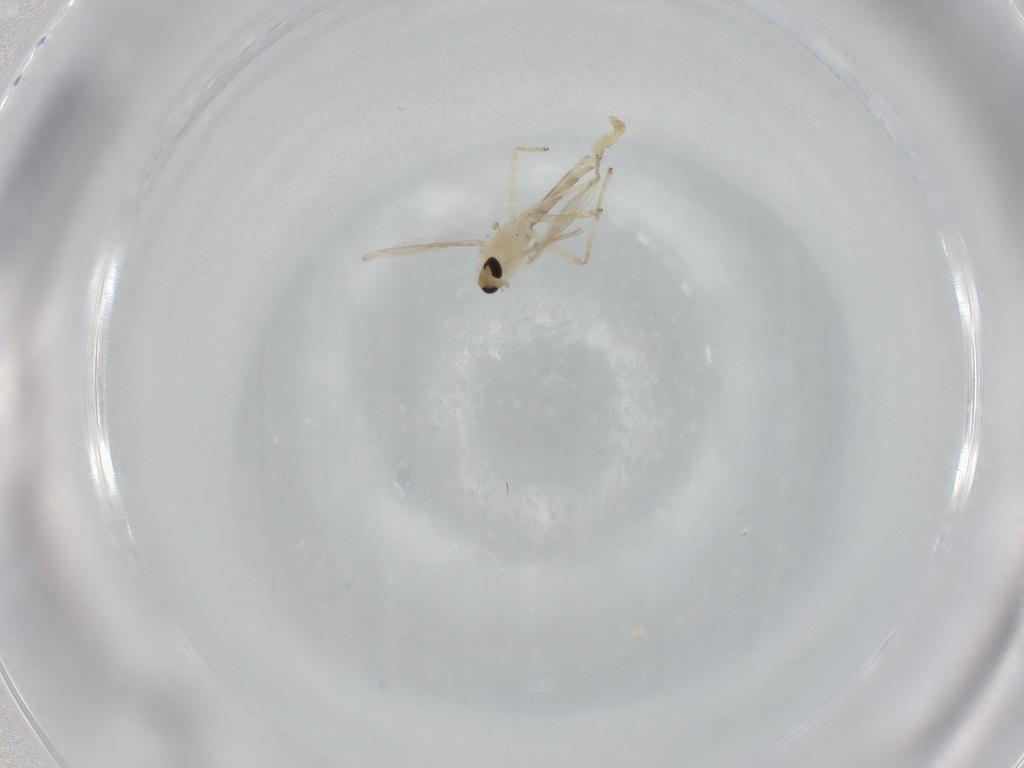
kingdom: Animalia
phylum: Arthropoda
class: Insecta
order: Diptera
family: Chironomidae
